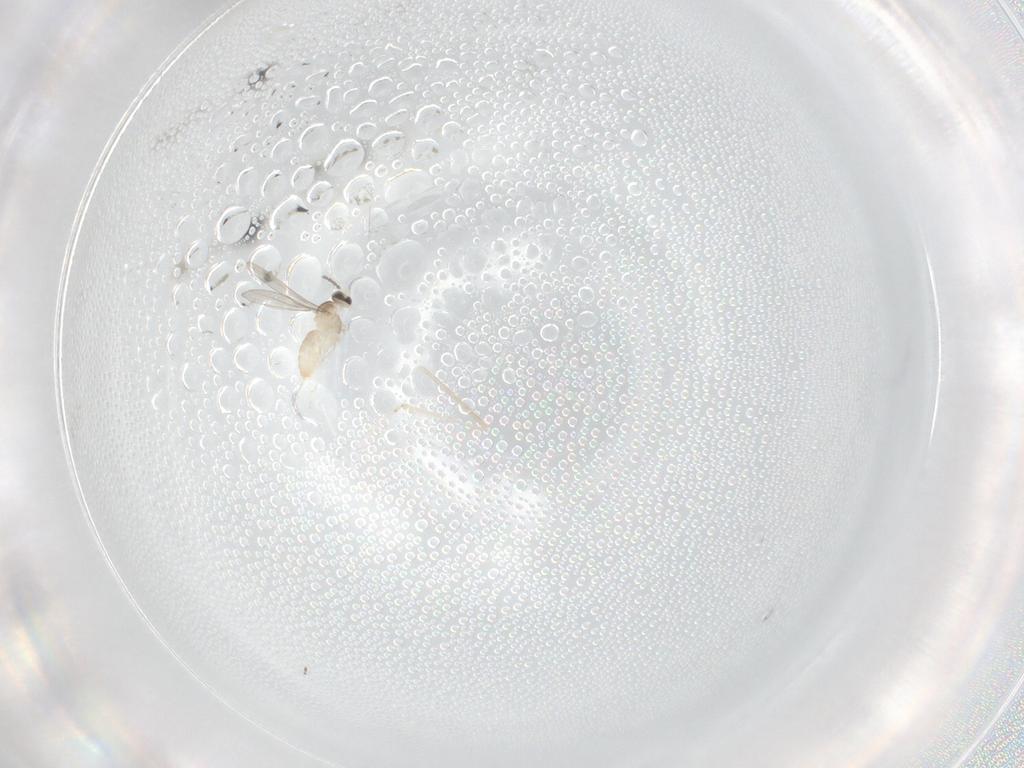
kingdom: Animalia
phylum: Arthropoda
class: Insecta
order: Diptera
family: Cecidomyiidae
